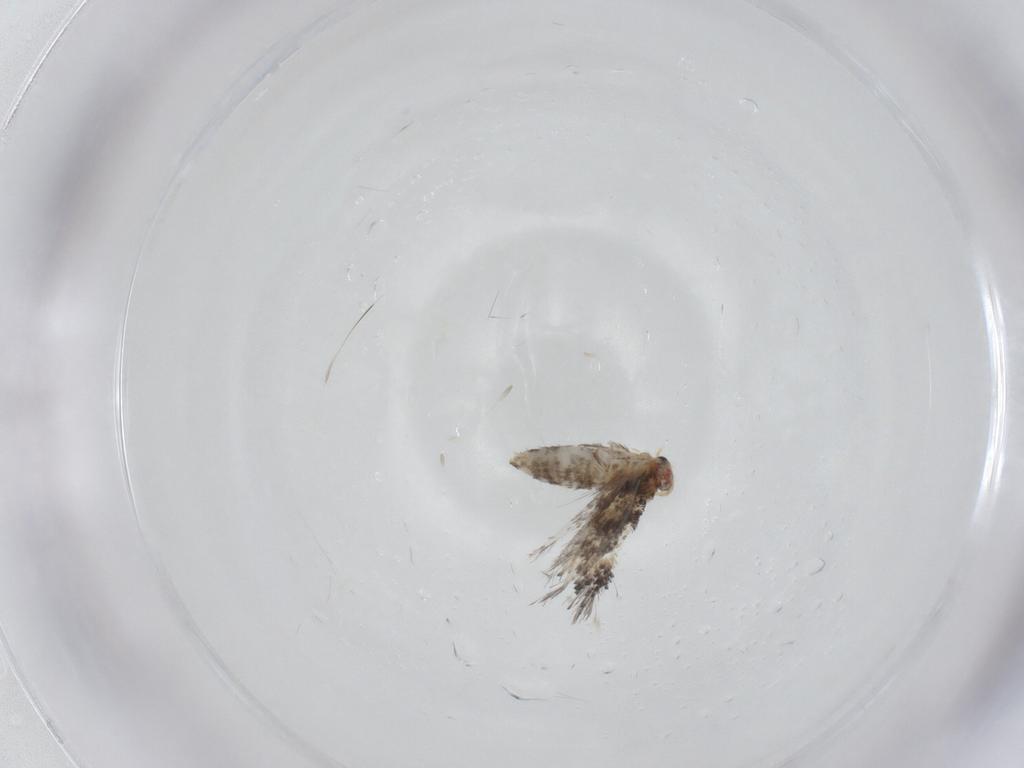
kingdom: Animalia
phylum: Arthropoda
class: Insecta
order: Lepidoptera
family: Nepticulidae
